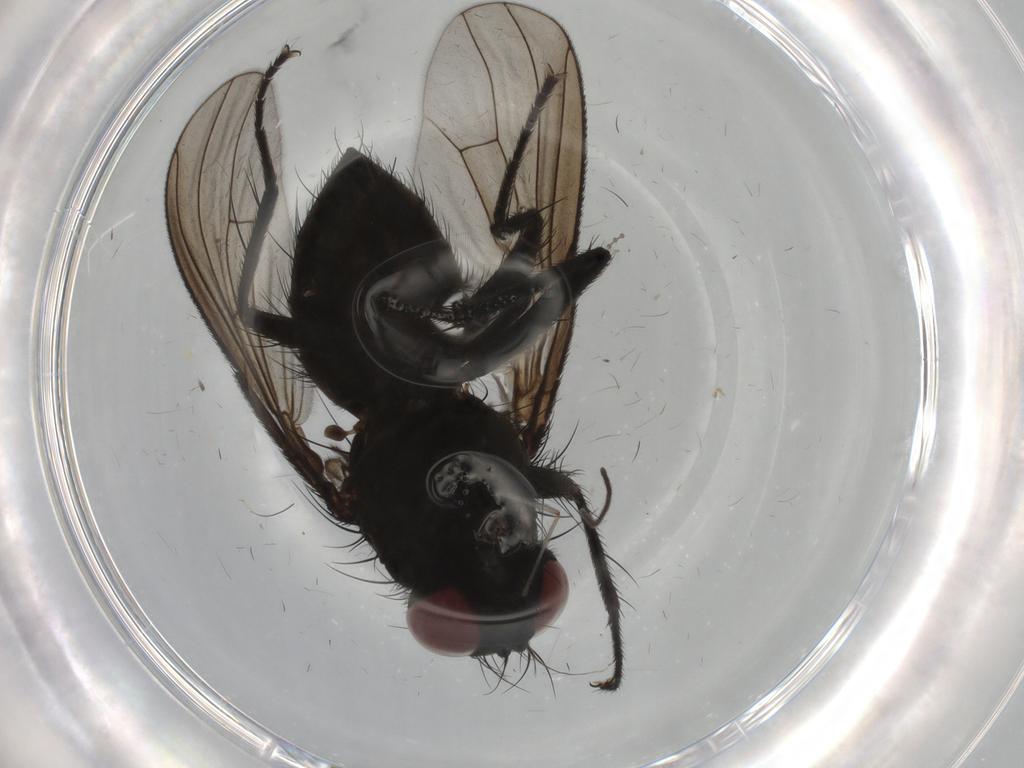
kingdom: Animalia
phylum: Arthropoda
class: Insecta
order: Diptera
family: Muscidae
